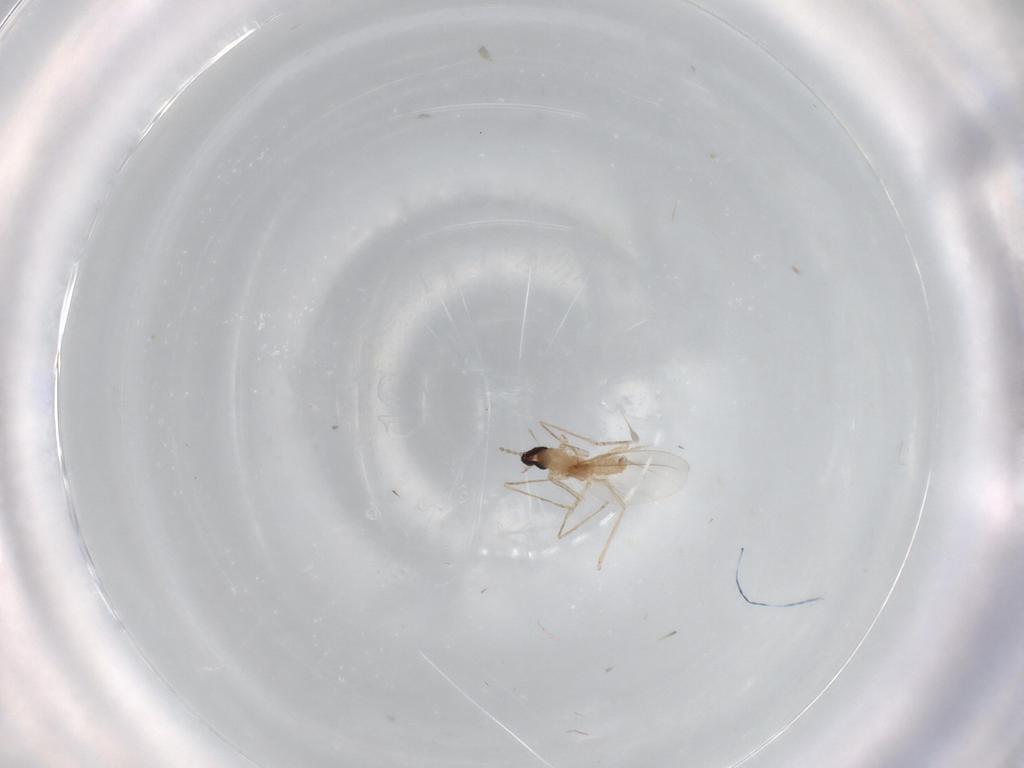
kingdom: Animalia
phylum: Arthropoda
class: Insecta
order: Diptera
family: Cecidomyiidae
